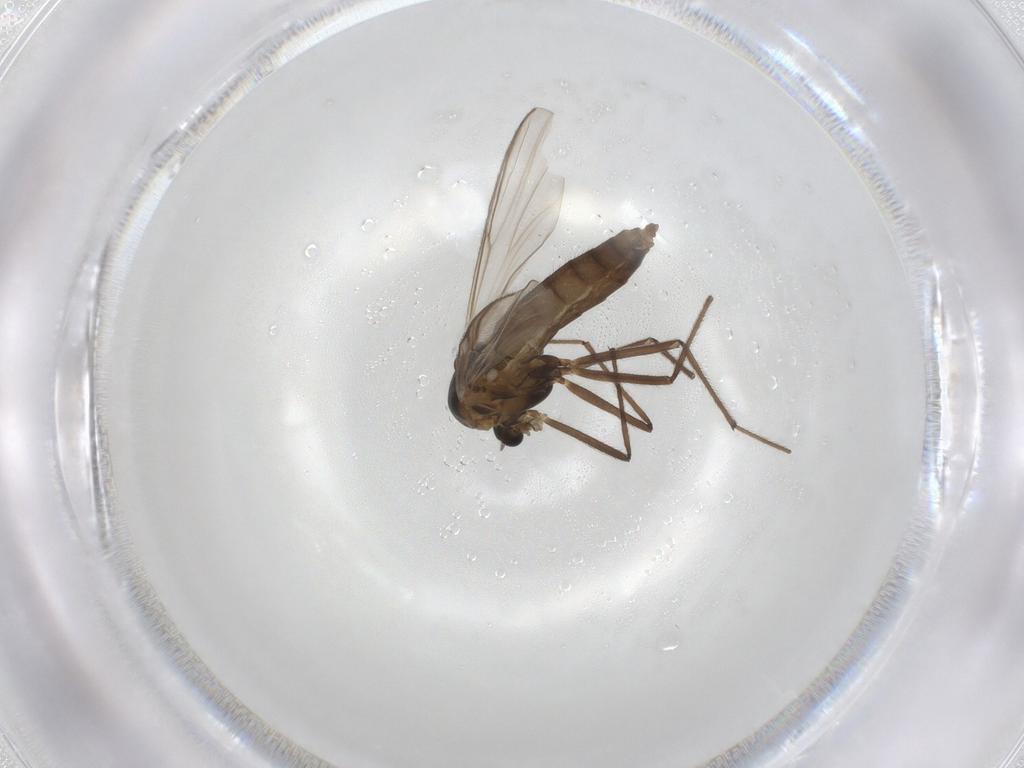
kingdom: Animalia
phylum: Arthropoda
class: Insecta
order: Diptera
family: Chironomidae
